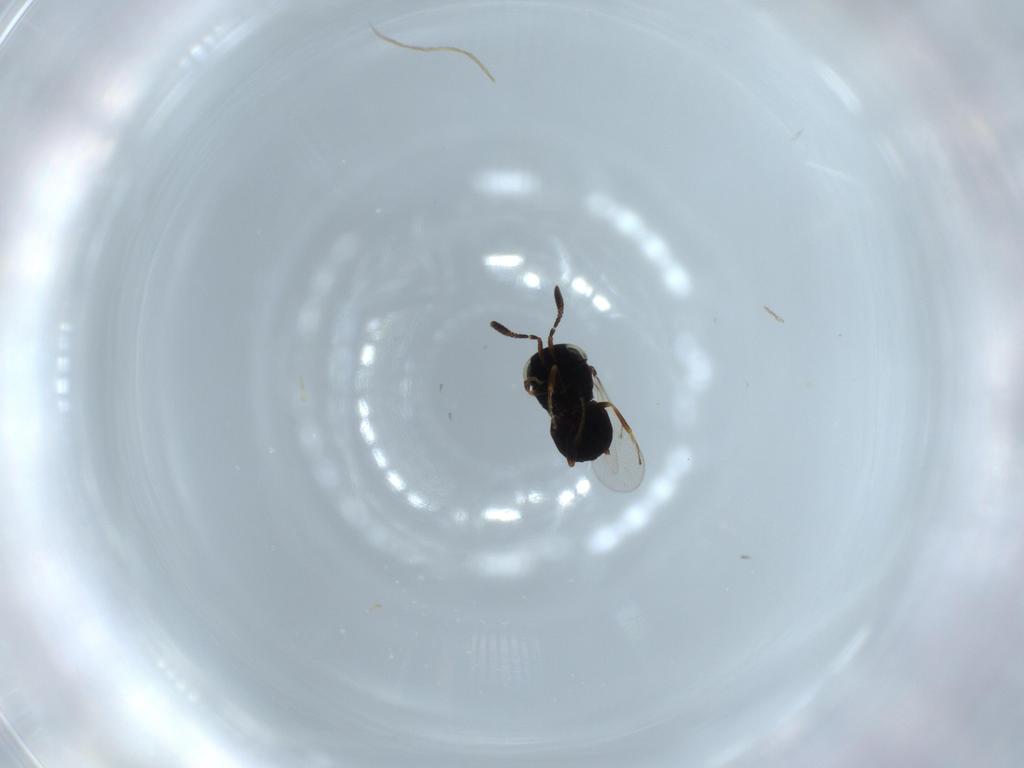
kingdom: Animalia
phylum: Arthropoda
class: Insecta
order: Hymenoptera
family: Scelionidae
